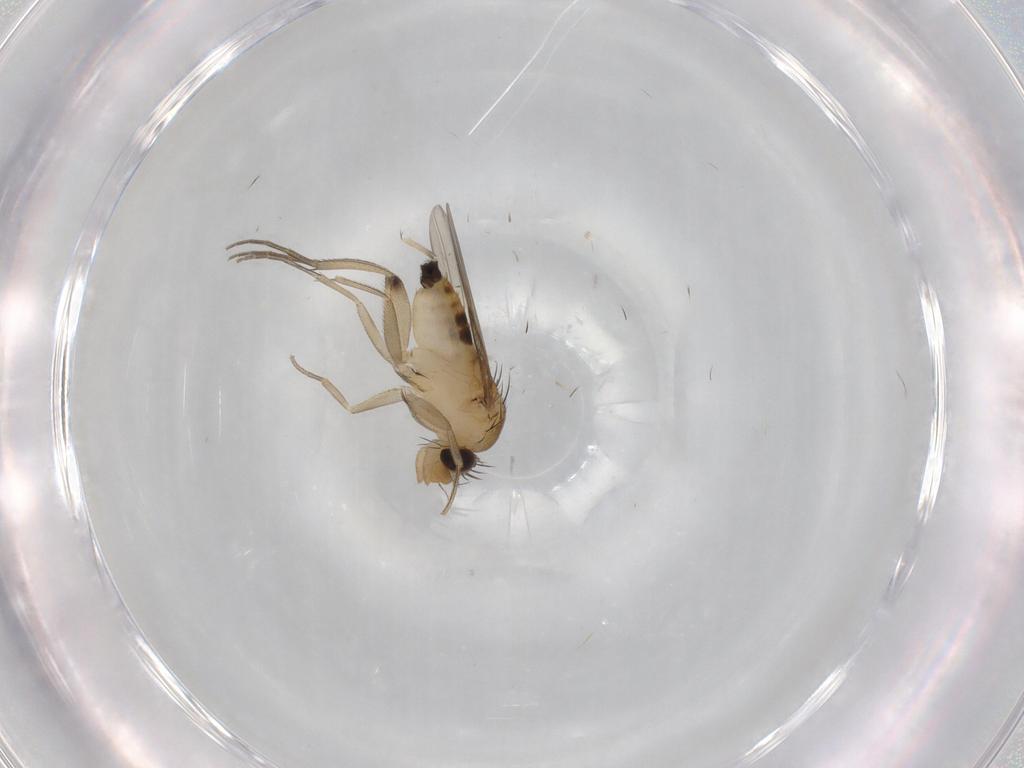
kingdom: Animalia
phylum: Arthropoda
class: Insecta
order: Diptera
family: Phoridae
